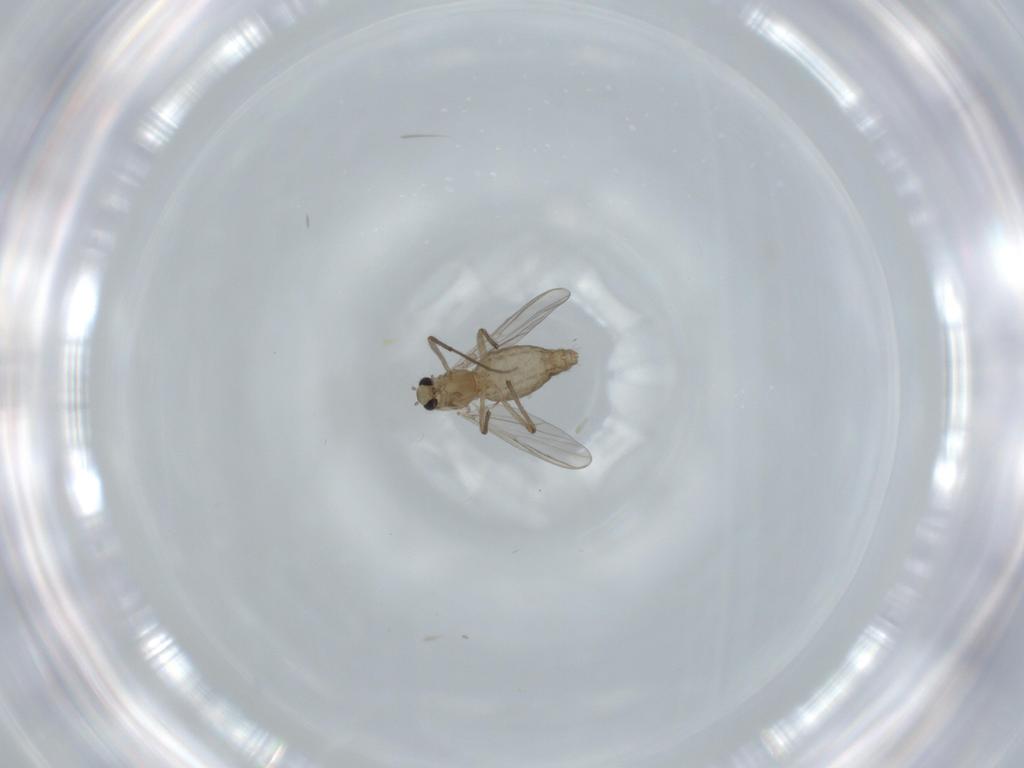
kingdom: Animalia
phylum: Arthropoda
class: Insecta
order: Diptera
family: Chironomidae
